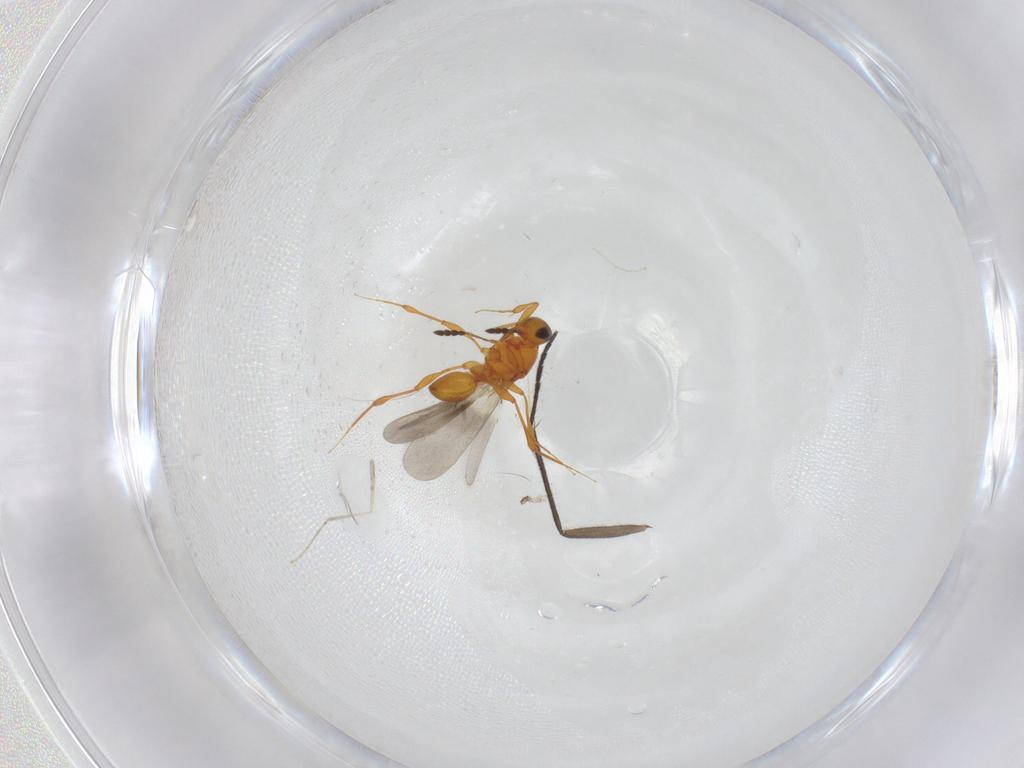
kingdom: Animalia
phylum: Arthropoda
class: Insecta
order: Hymenoptera
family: Platygastridae
